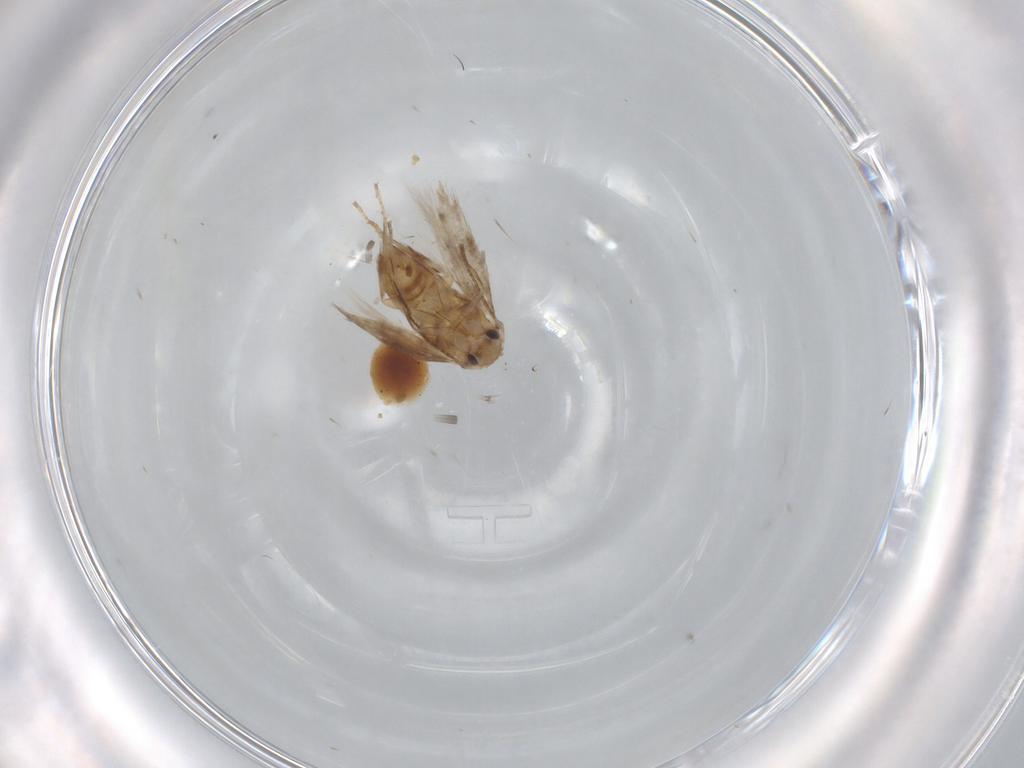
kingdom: Animalia
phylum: Arthropoda
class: Insecta
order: Lepidoptera
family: Nymphalidae
